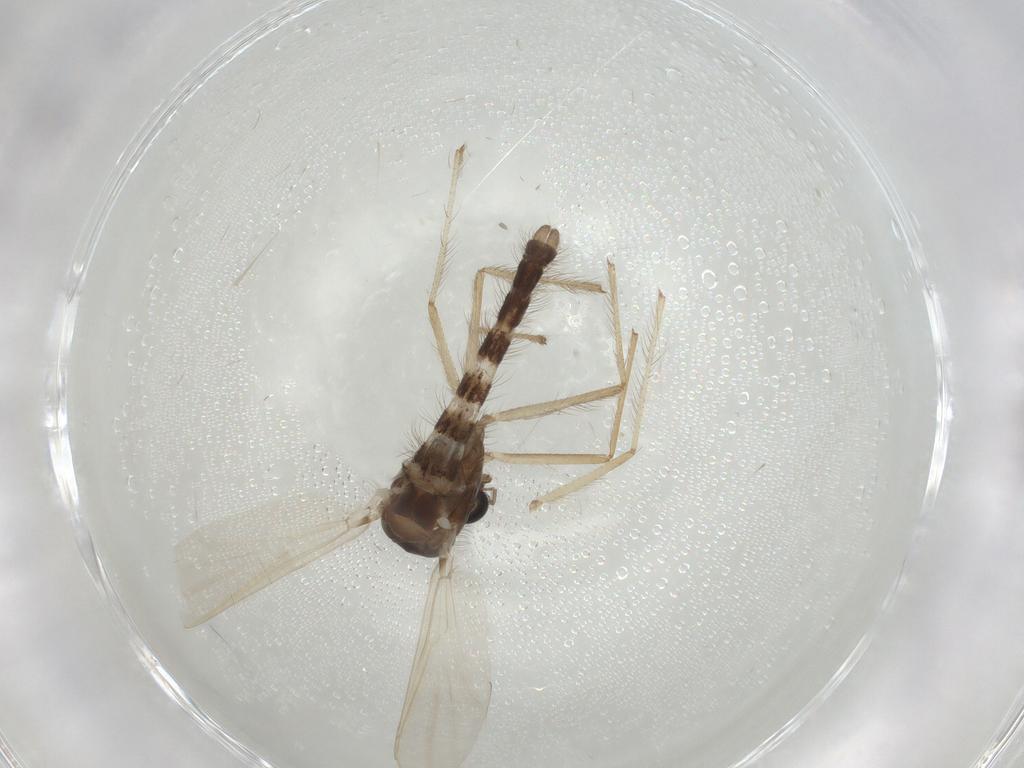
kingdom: Animalia
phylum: Arthropoda
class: Insecta
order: Diptera
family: Chironomidae
